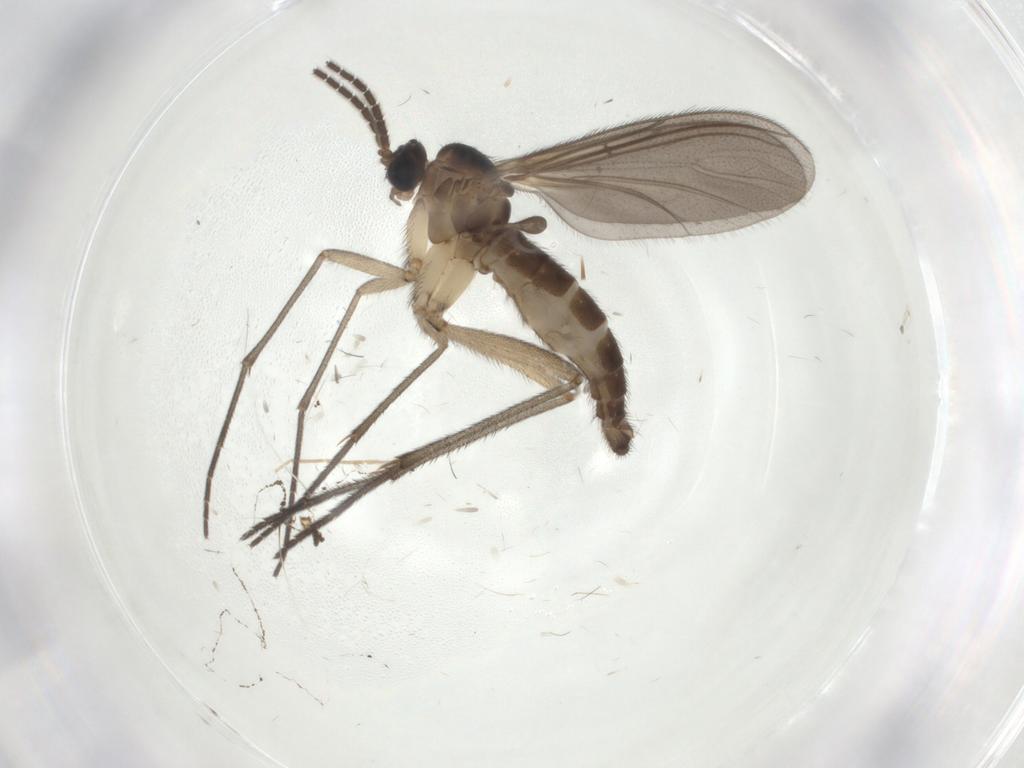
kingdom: Animalia
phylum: Arthropoda
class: Insecta
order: Diptera
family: Sciaridae
